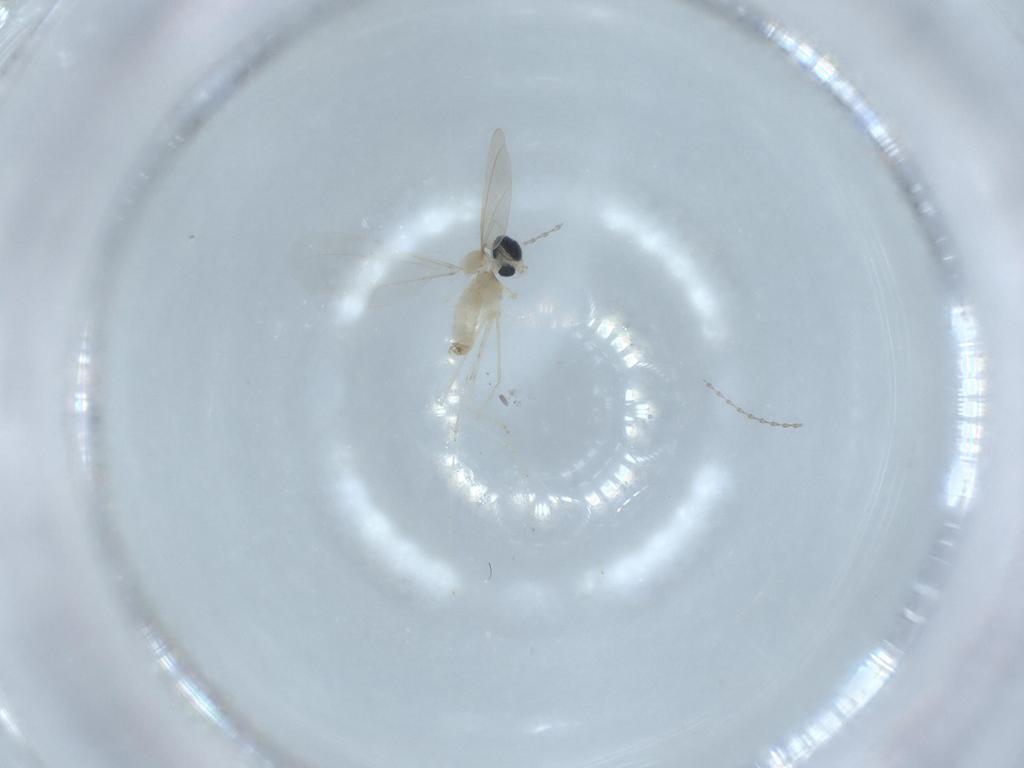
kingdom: Animalia
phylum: Arthropoda
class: Insecta
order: Diptera
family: Cecidomyiidae
